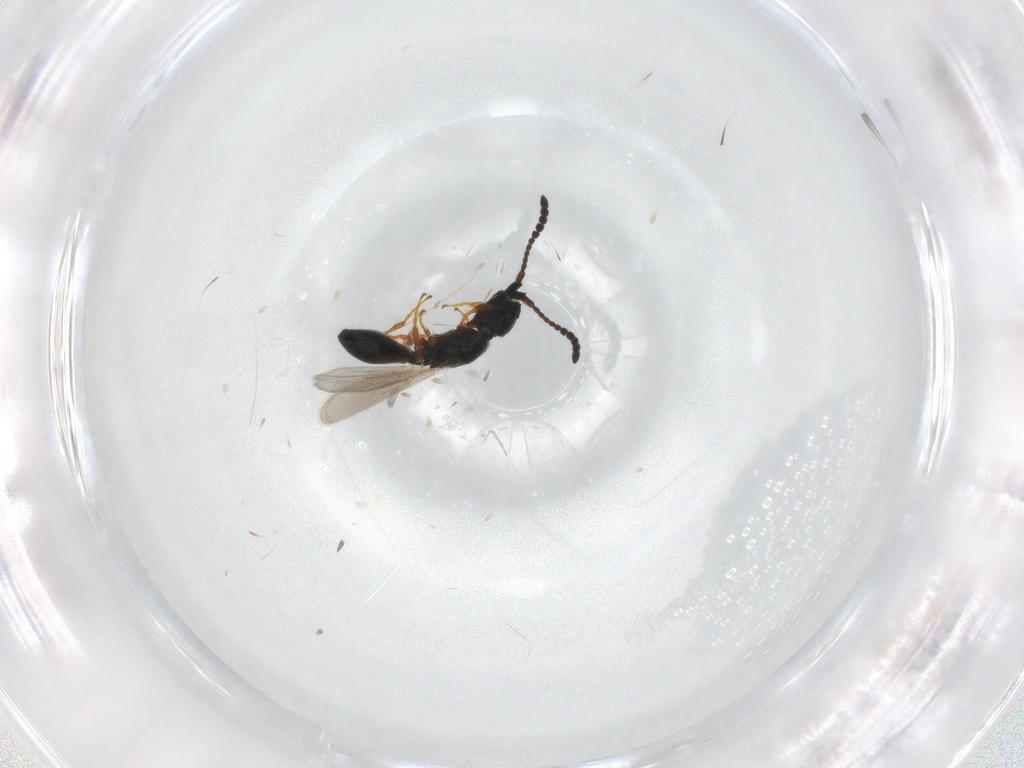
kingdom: Animalia
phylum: Arthropoda
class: Insecta
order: Hymenoptera
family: Diapriidae
